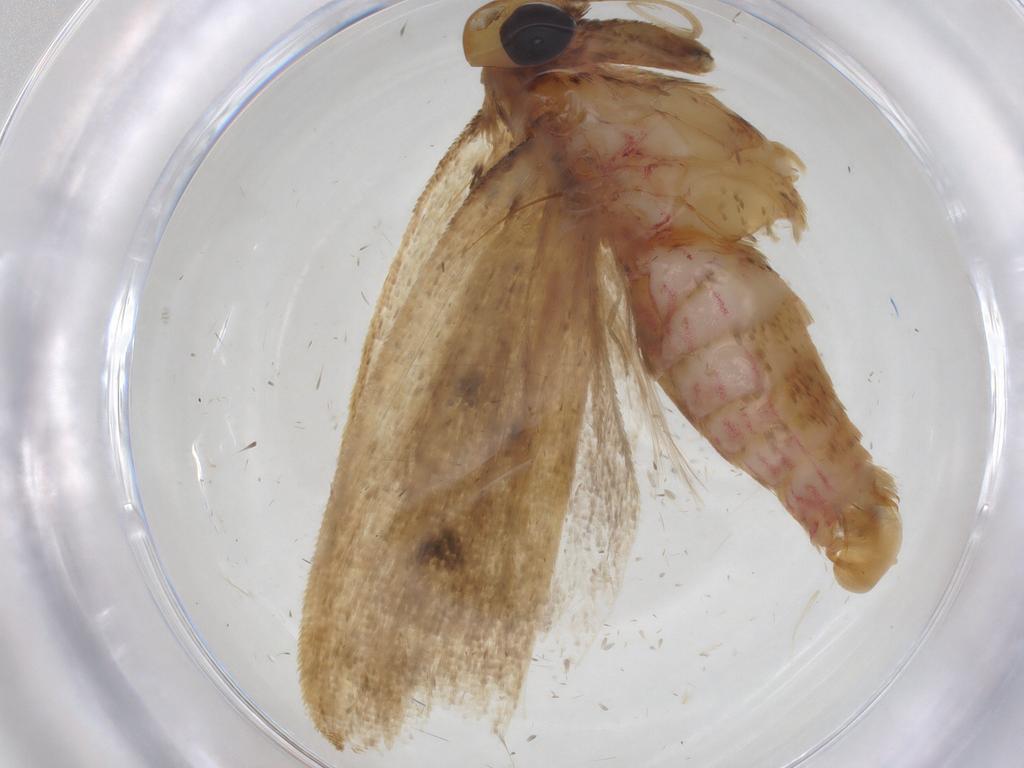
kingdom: Animalia
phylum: Arthropoda
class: Insecta
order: Lepidoptera
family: Oecophoridae
